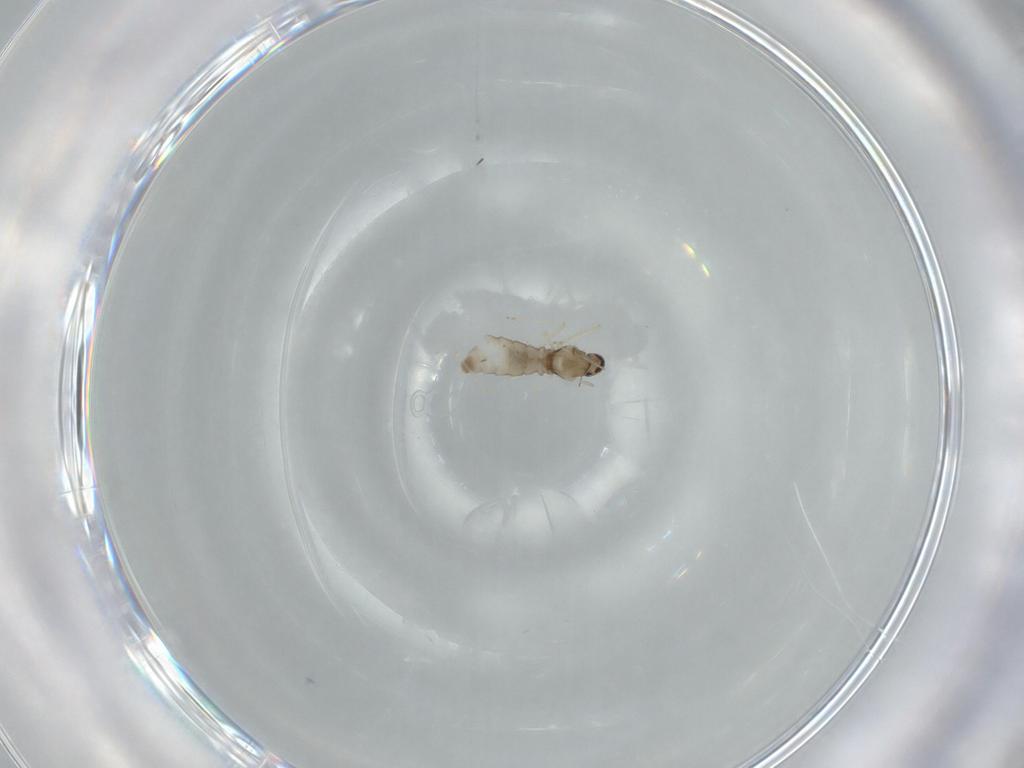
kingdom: Animalia
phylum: Arthropoda
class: Insecta
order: Diptera
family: Cecidomyiidae
